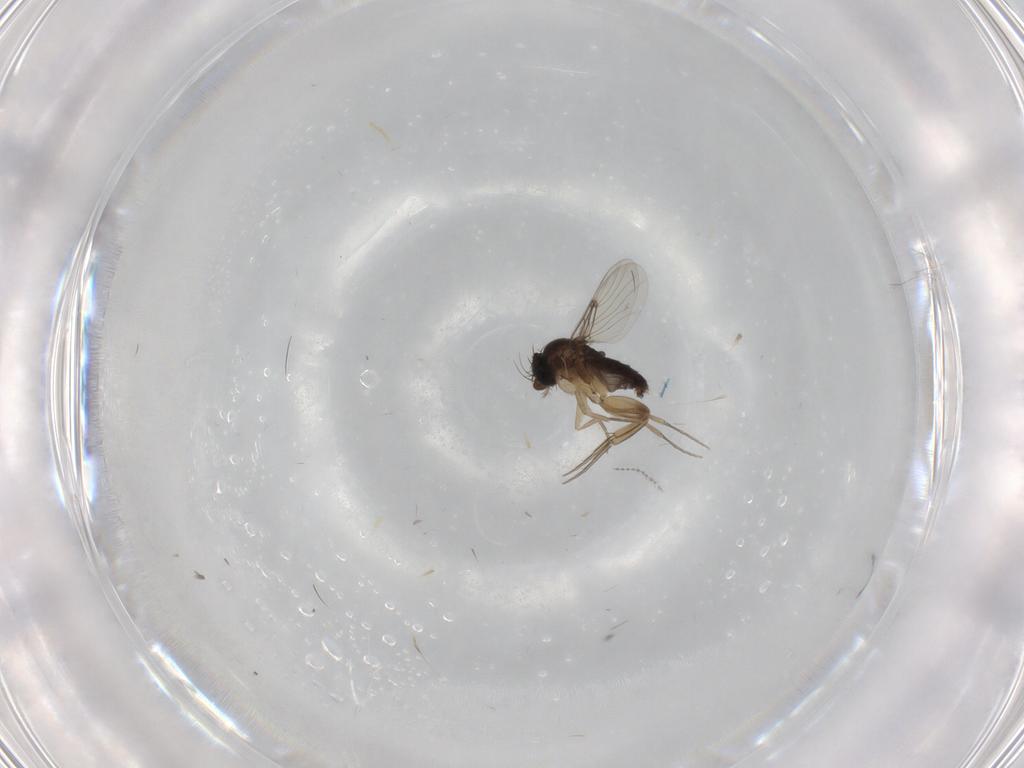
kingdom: Animalia
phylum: Arthropoda
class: Insecta
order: Diptera
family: Phoridae
